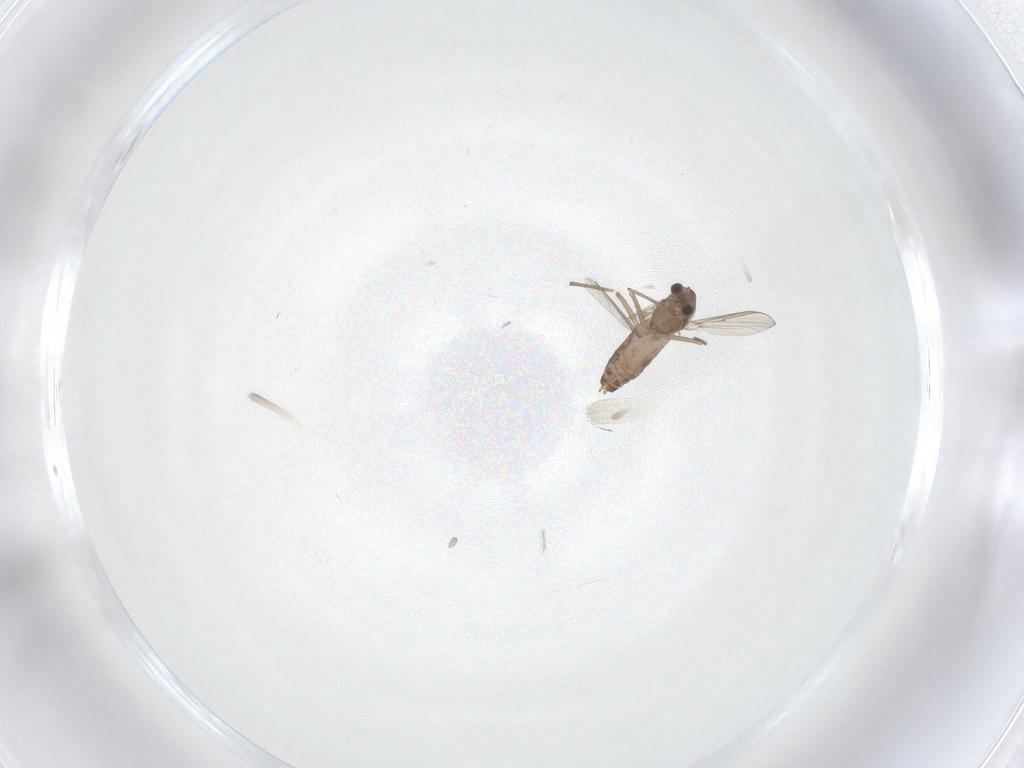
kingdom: Animalia
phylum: Arthropoda
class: Insecta
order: Diptera
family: Chironomidae
